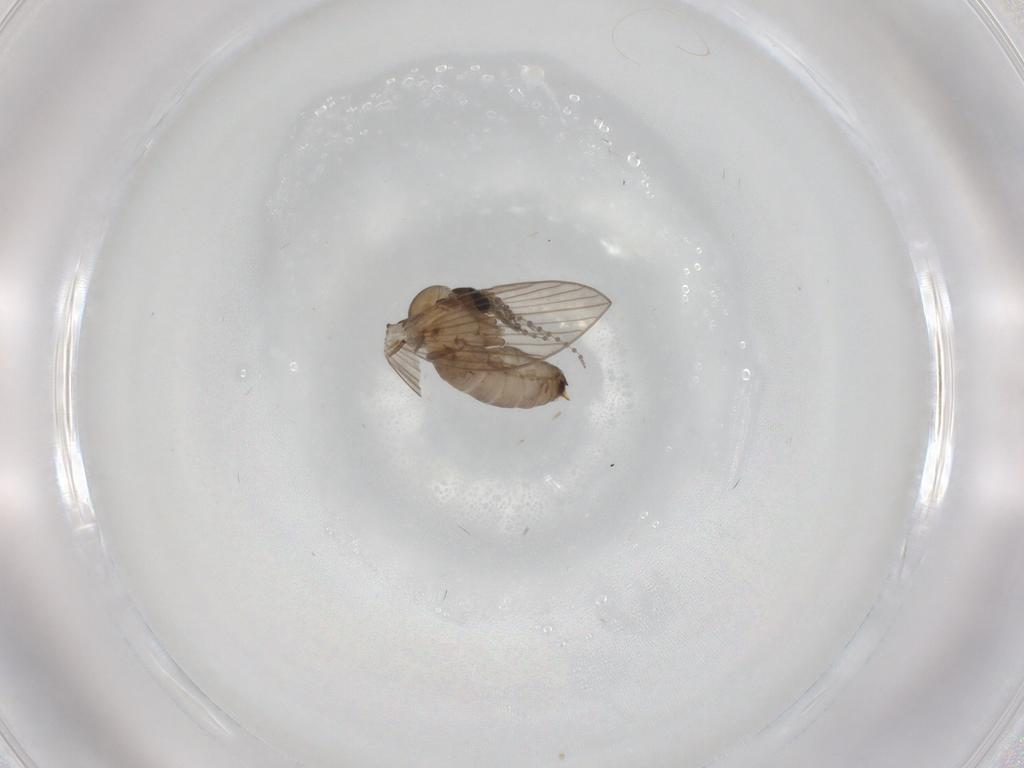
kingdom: Animalia
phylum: Arthropoda
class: Insecta
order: Diptera
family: Psychodidae
